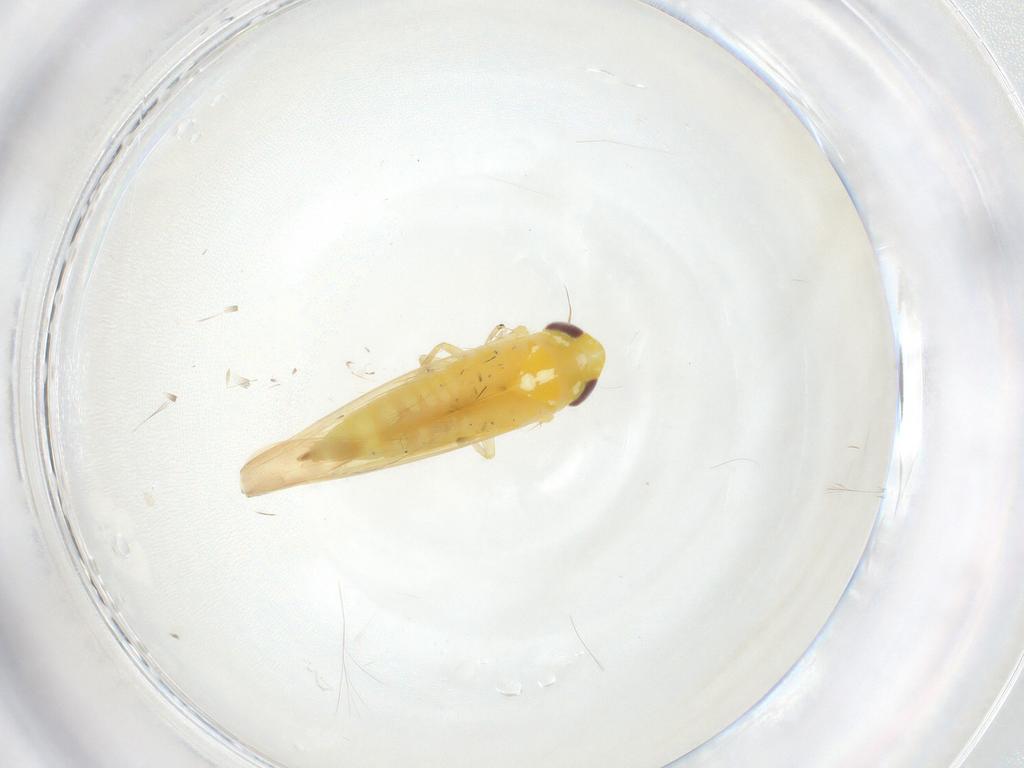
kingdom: Animalia
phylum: Arthropoda
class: Insecta
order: Hemiptera
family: Cicadellidae
